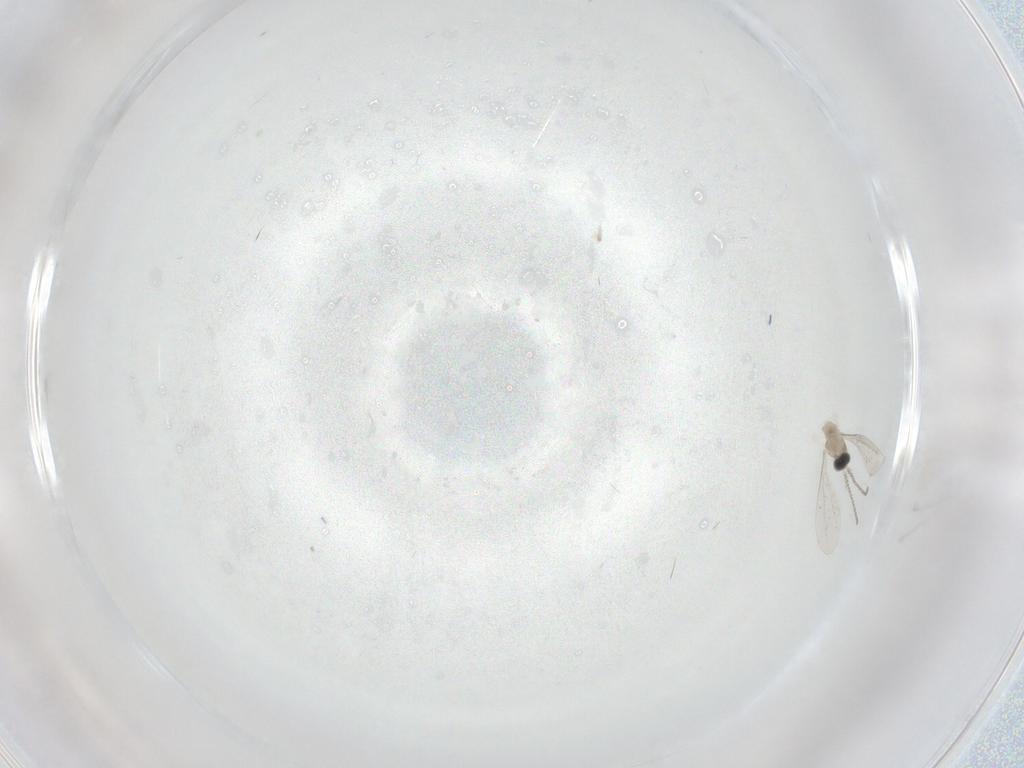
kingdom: Animalia
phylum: Arthropoda
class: Insecta
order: Diptera
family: Cecidomyiidae
